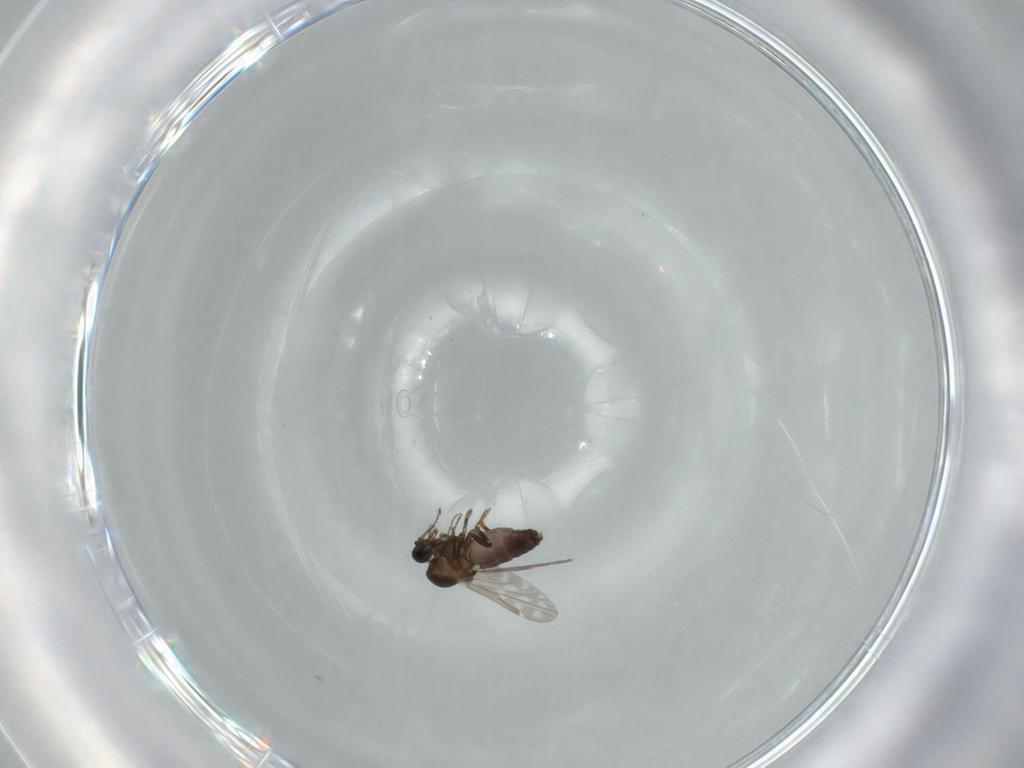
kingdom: Animalia
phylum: Arthropoda
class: Insecta
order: Diptera
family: Ceratopogonidae
